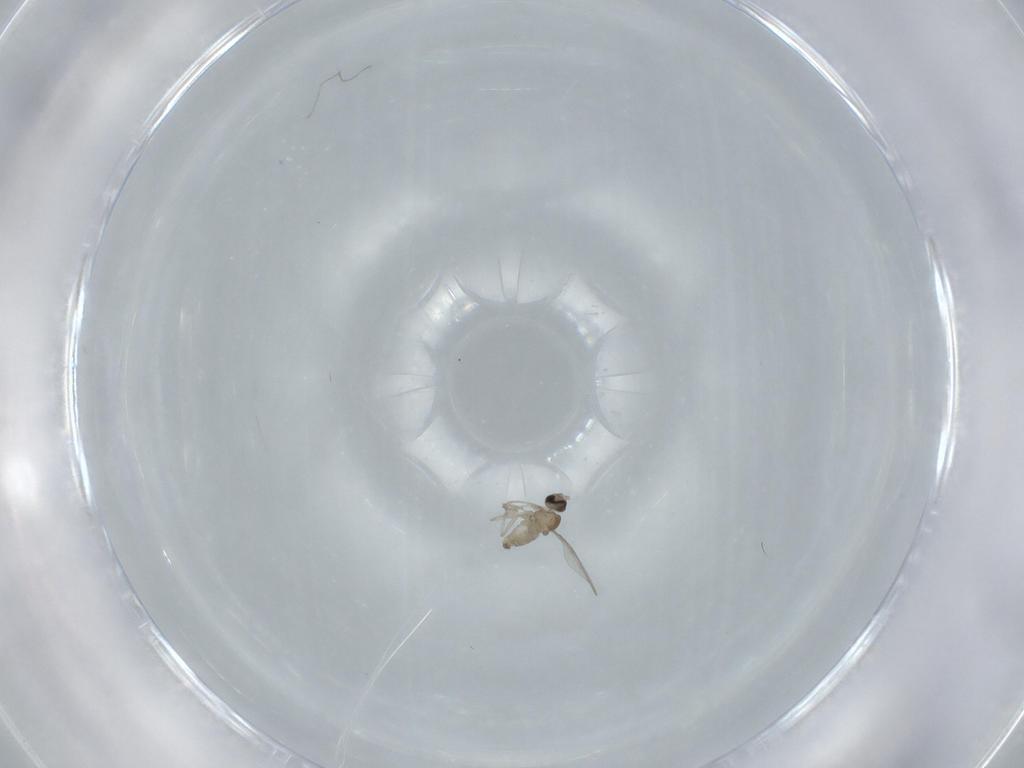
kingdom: Animalia
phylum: Arthropoda
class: Insecta
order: Diptera
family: Cecidomyiidae
